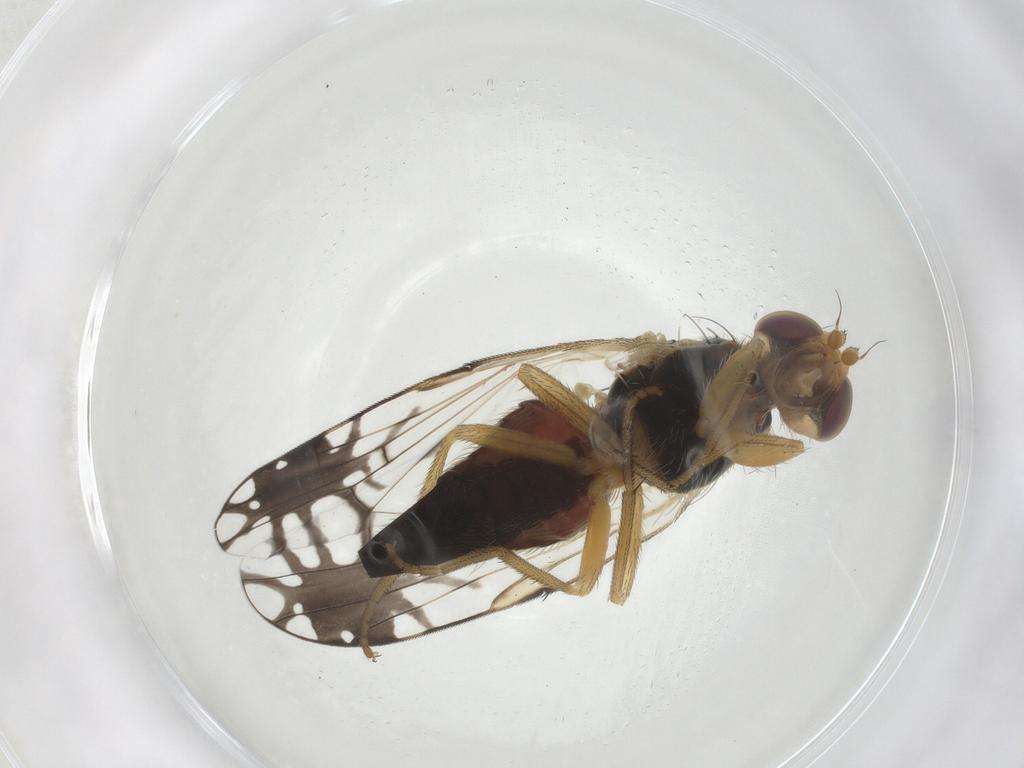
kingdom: Animalia
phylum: Arthropoda
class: Insecta
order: Diptera
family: Tephritidae
